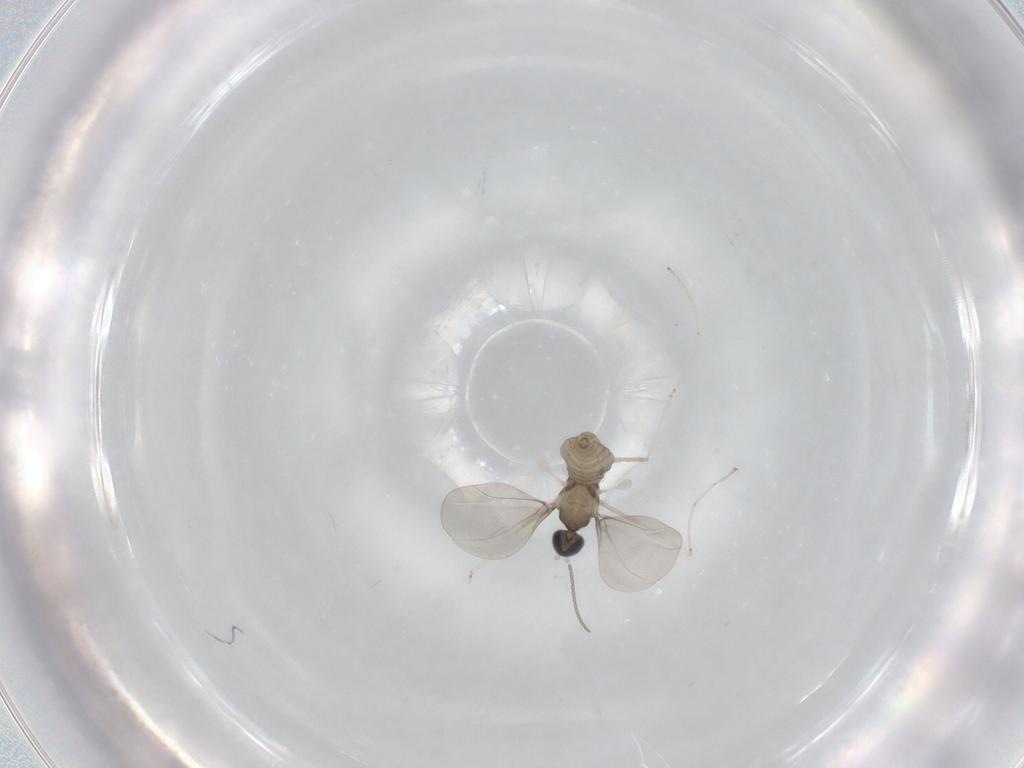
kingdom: Animalia
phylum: Arthropoda
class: Insecta
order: Diptera
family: Cecidomyiidae
